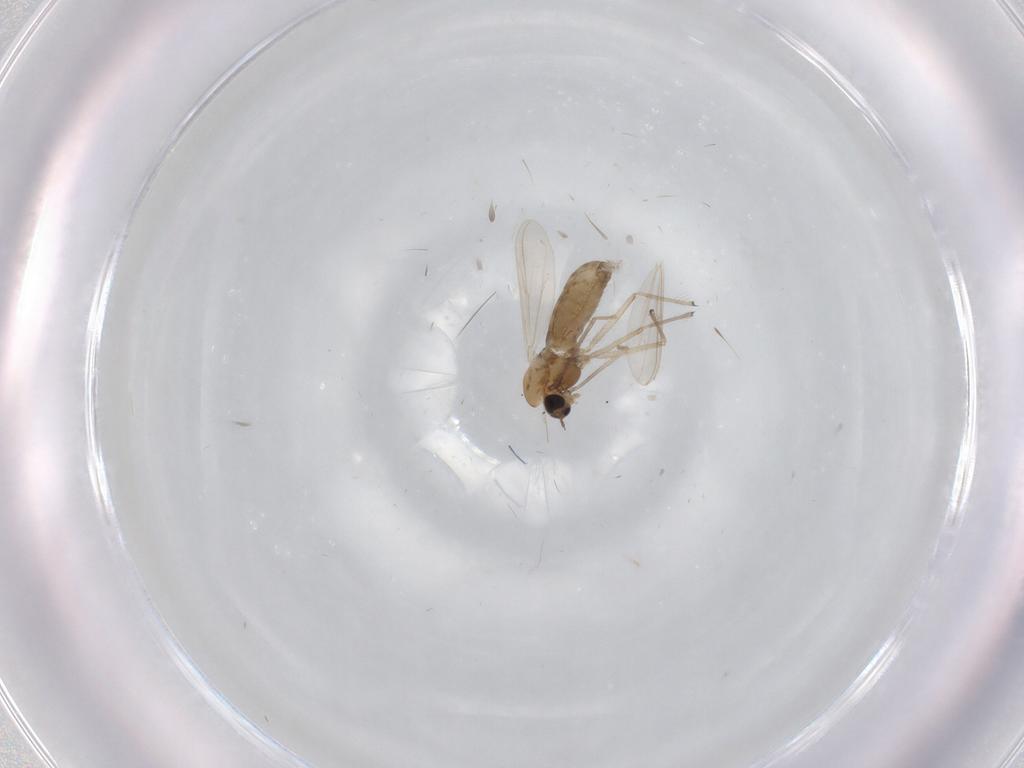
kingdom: Animalia
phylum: Arthropoda
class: Insecta
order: Diptera
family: Chironomidae
